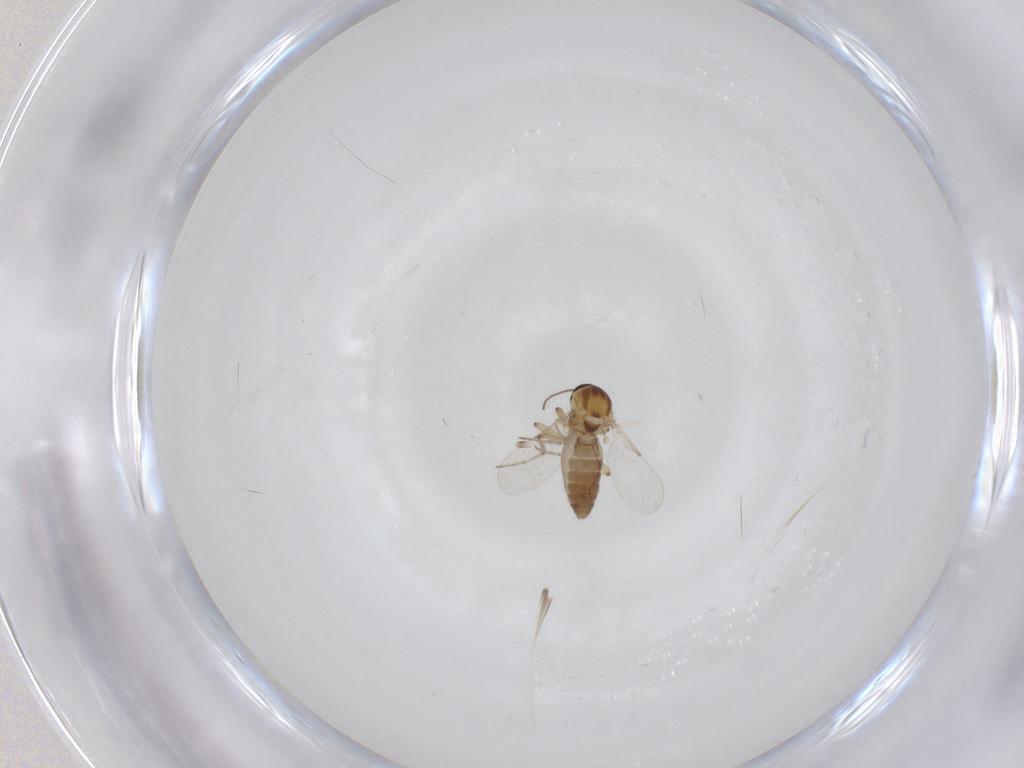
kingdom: Animalia
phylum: Arthropoda
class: Insecta
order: Diptera
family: Ceratopogonidae
